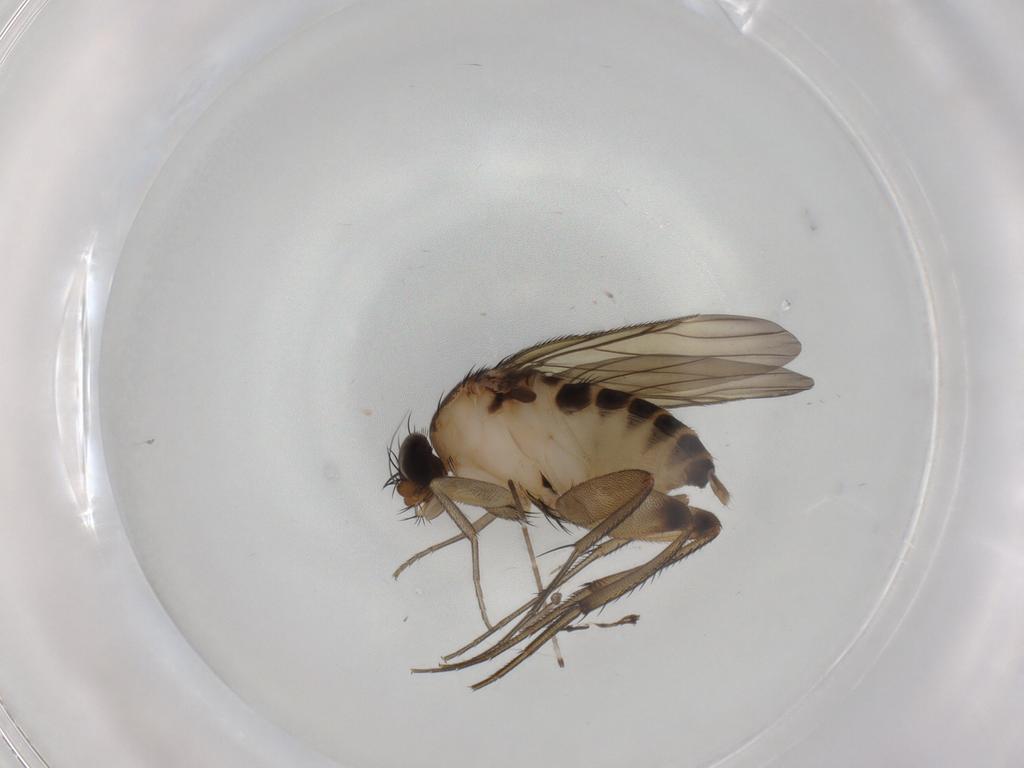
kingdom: Animalia
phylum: Arthropoda
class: Insecta
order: Diptera
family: Phoridae
